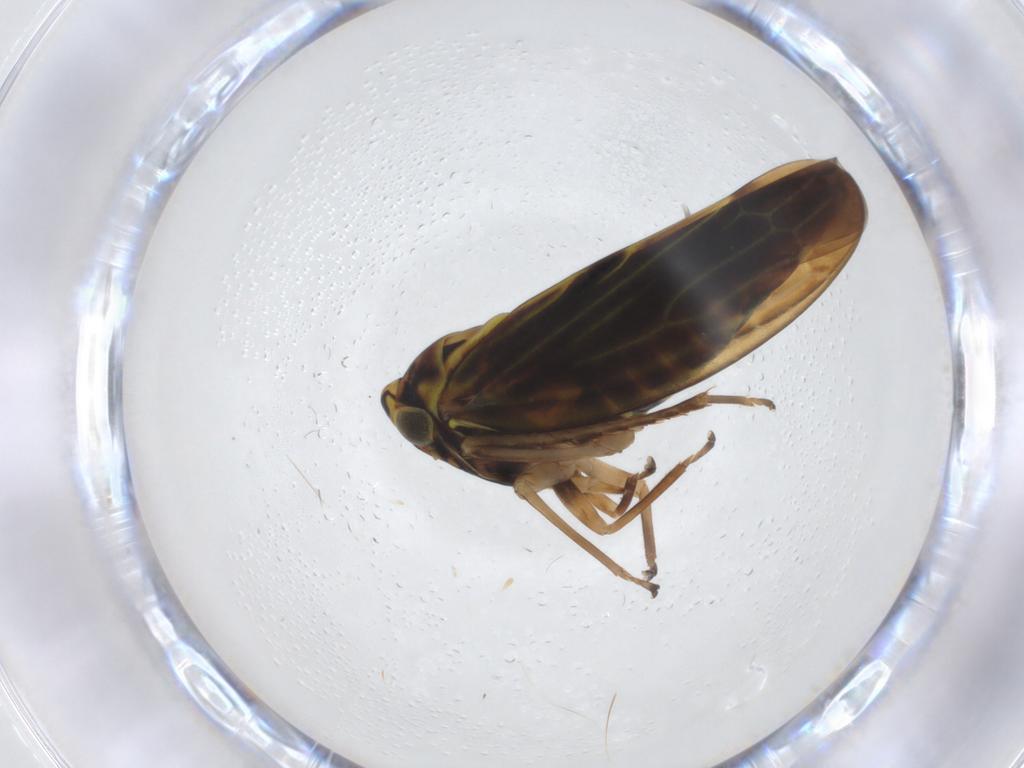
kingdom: Animalia
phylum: Arthropoda
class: Insecta
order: Hemiptera
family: Cicadellidae
